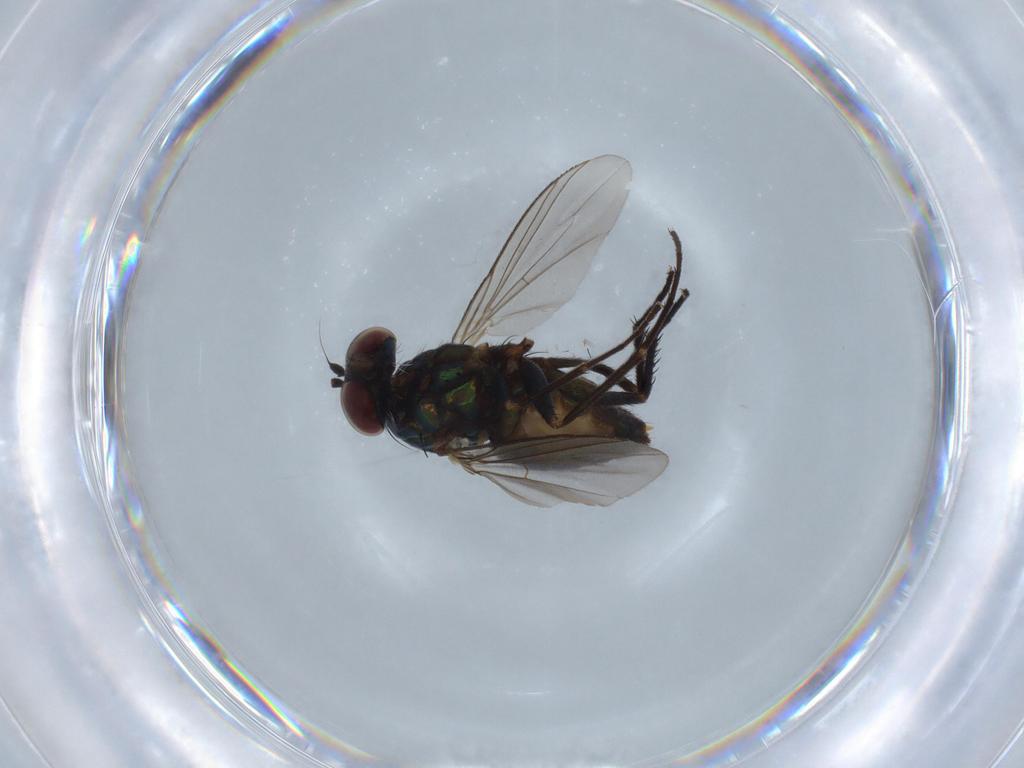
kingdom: Animalia
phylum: Arthropoda
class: Insecta
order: Diptera
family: Dolichopodidae
